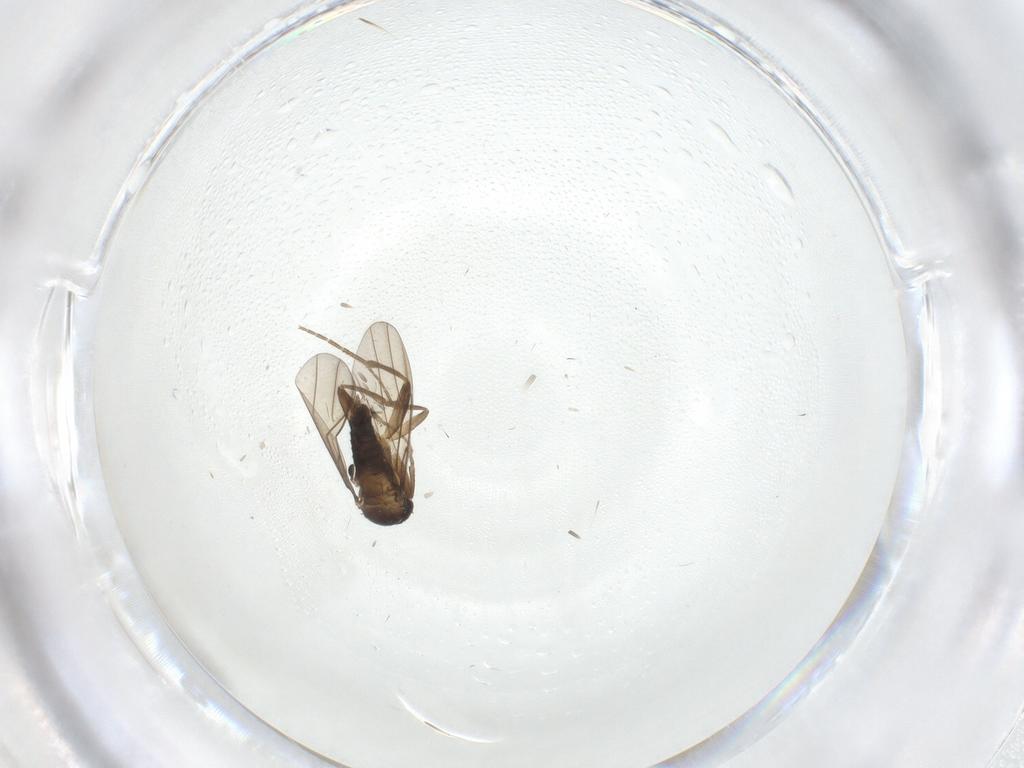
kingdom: Animalia
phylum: Arthropoda
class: Insecta
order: Diptera
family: Phoridae
